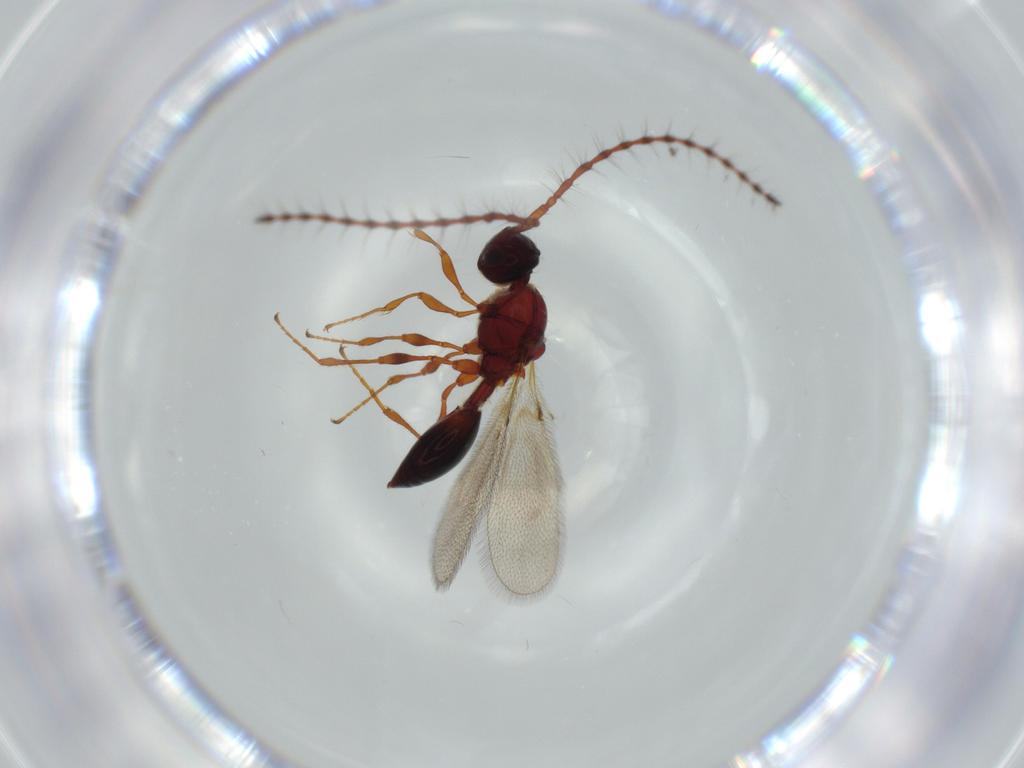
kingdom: Animalia
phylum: Arthropoda
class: Insecta
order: Hymenoptera
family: Diapriidae
